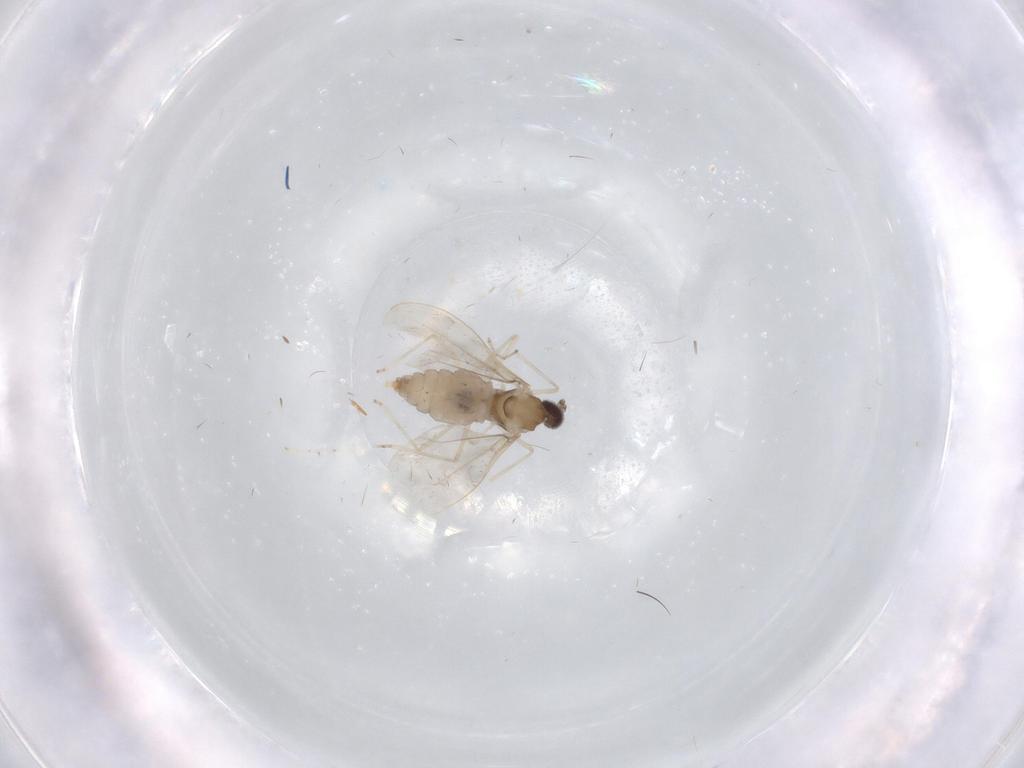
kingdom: Animalia
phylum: Arthropoda
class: Insecta
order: Diptera
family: Cecidomyiidae
